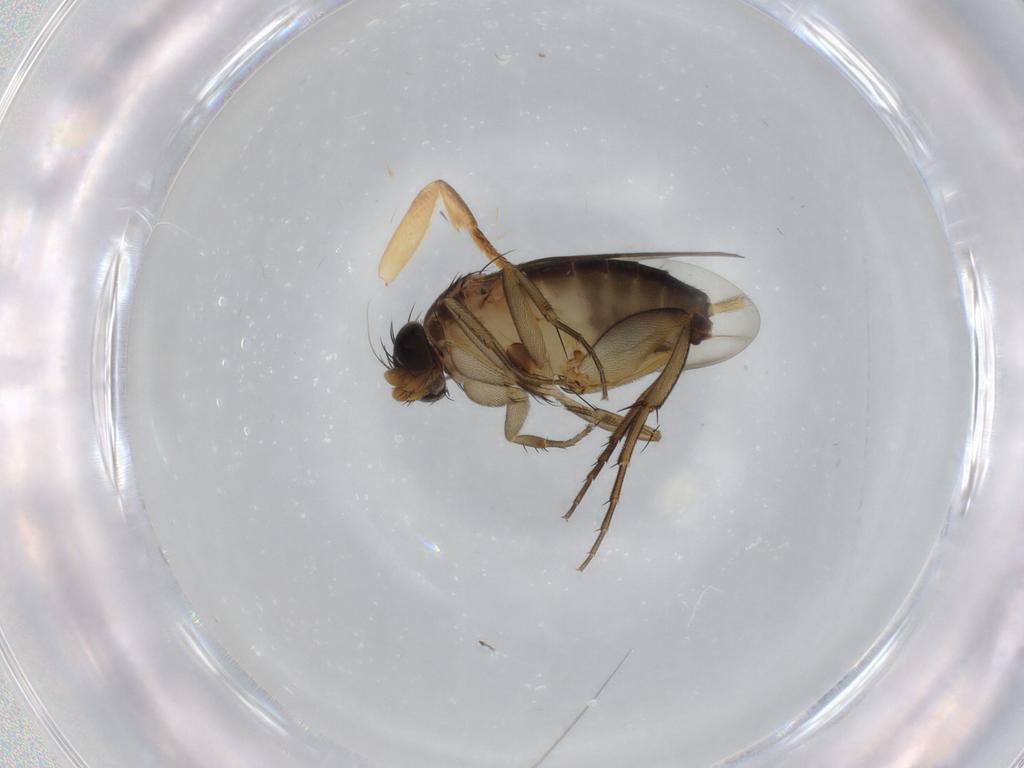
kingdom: Animalia
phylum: Arthropoda
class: Insecta
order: Diptera
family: Phoridae
